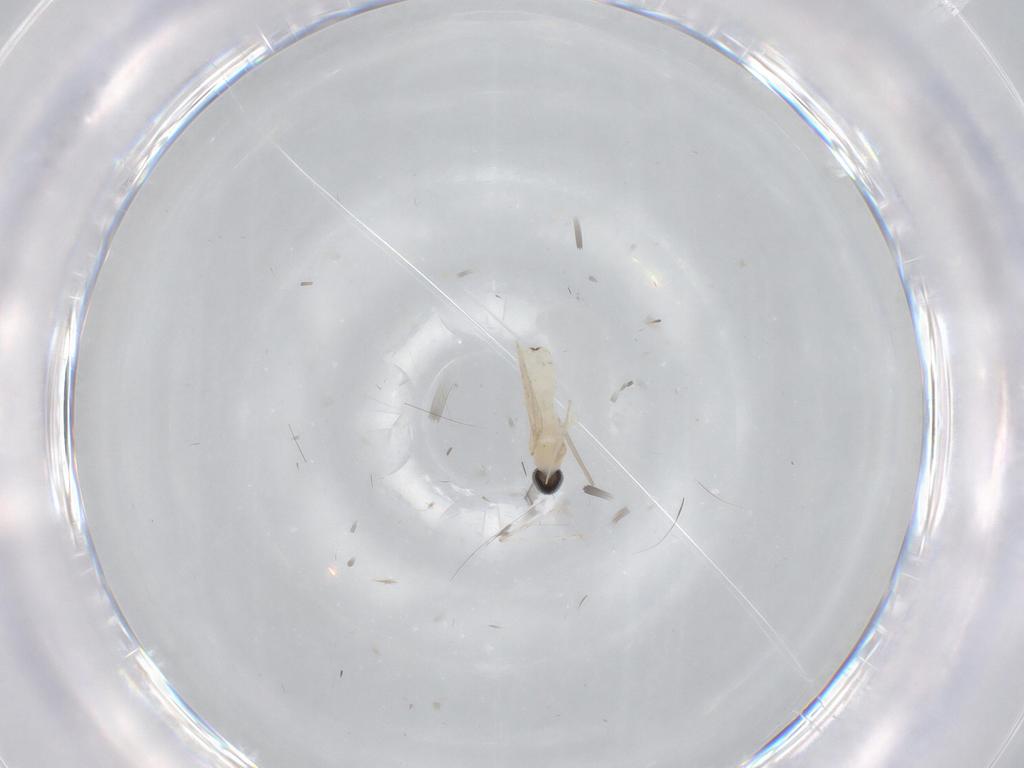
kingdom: Animalia
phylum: Arthropoda
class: Insecta
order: Diptera
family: Cecidomyiidae
